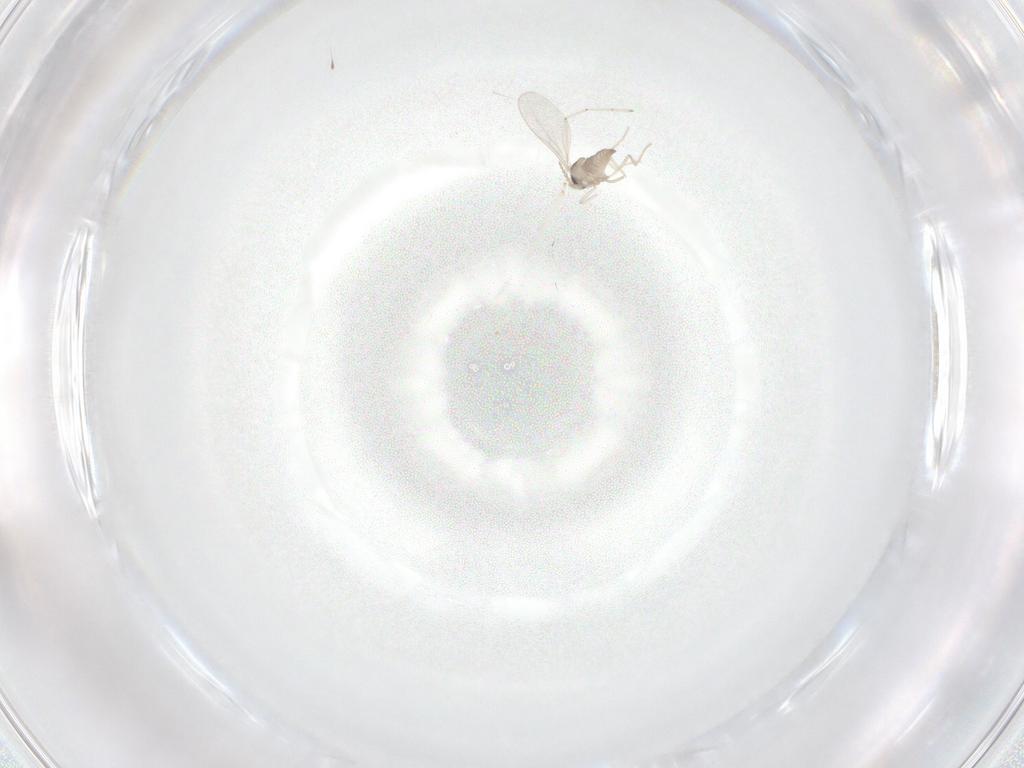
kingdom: Animalia
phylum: Arthropoda
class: Insecta
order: Diptera
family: Cecidomyiidae
